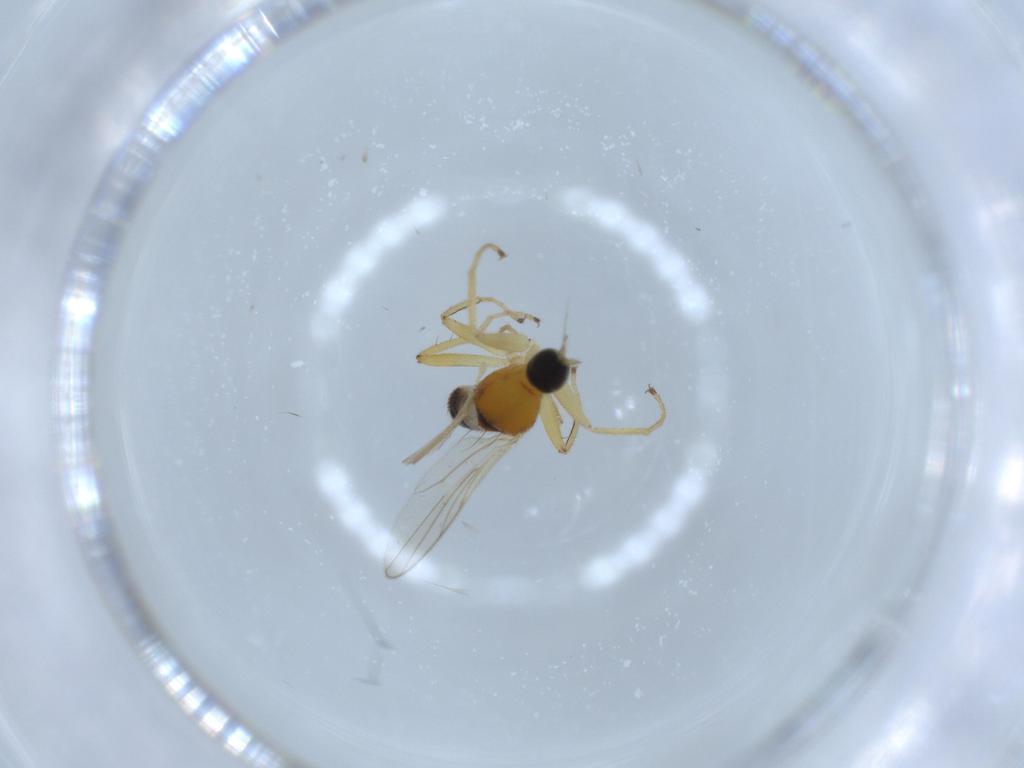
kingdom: Animalia
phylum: Arthropoda
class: Insecta
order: Diptera
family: Hybotidae
